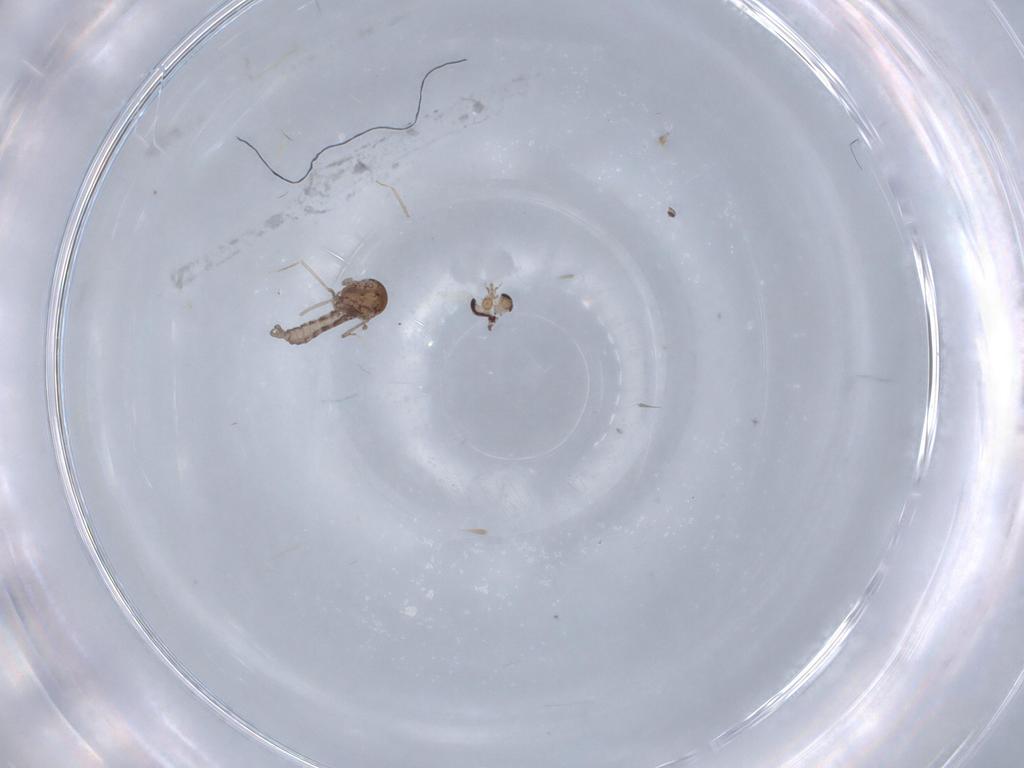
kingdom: Animalia
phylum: Arthropoda
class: Insecta
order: Diptera
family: Ceratopogonidae
